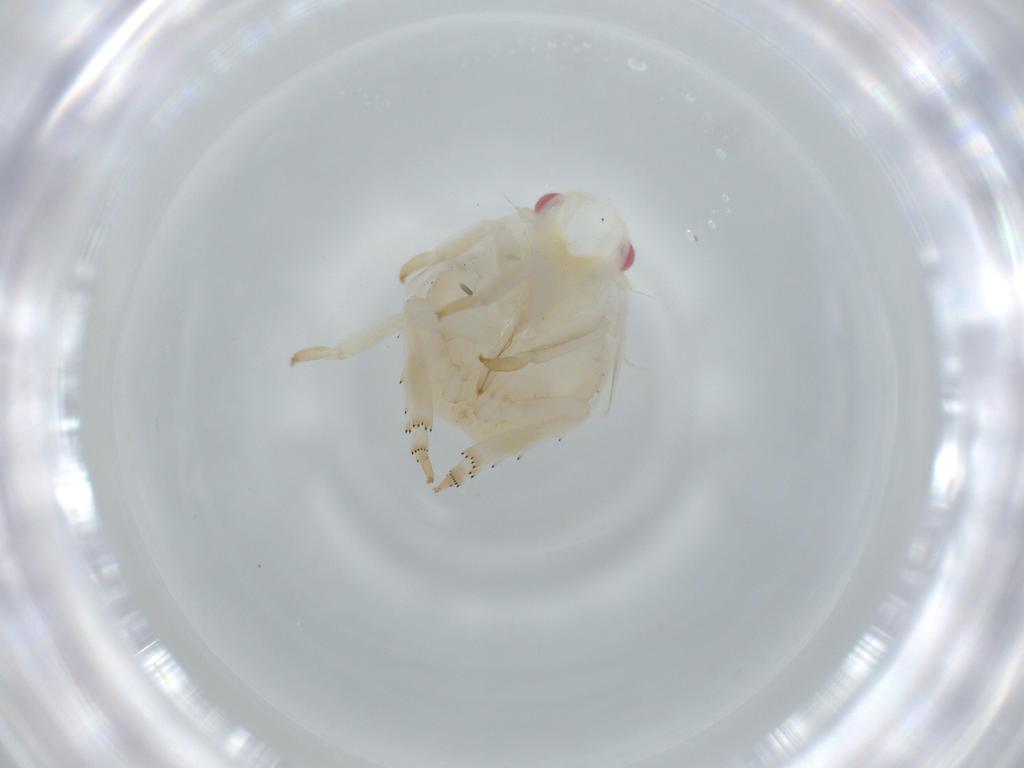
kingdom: Animalia
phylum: Arthropoda
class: Insecta
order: Hemiptera
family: Flatidae
